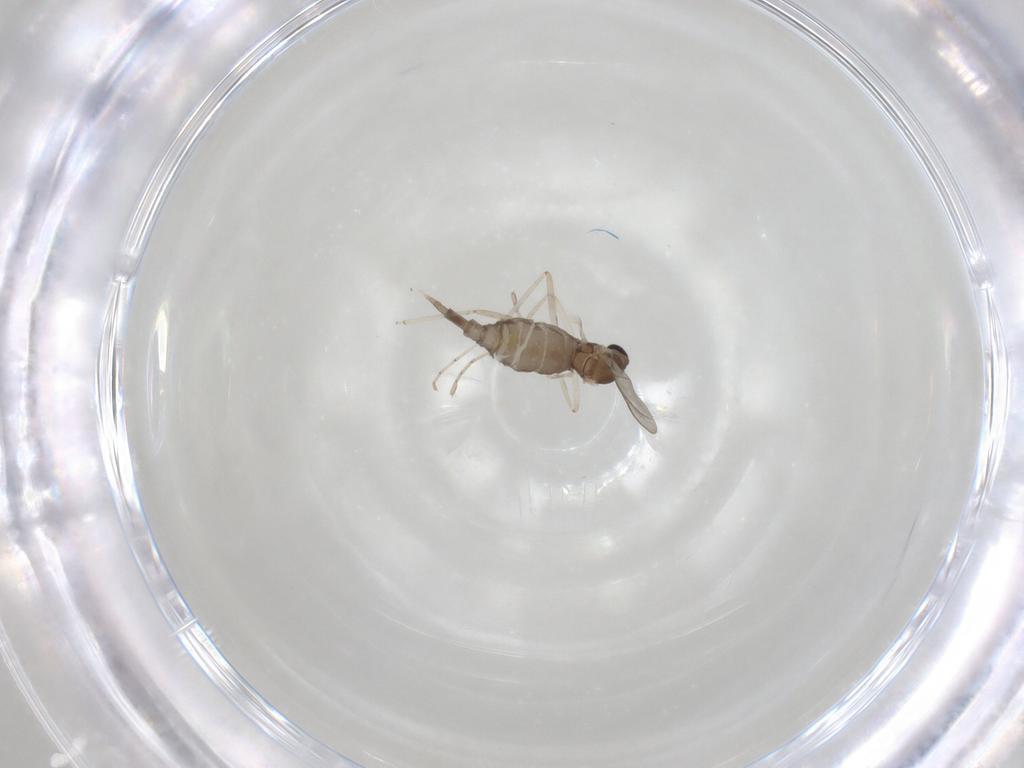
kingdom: Animalia
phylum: Arthropoda
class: Insecta
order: Diptera
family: Cecidomyiidae
